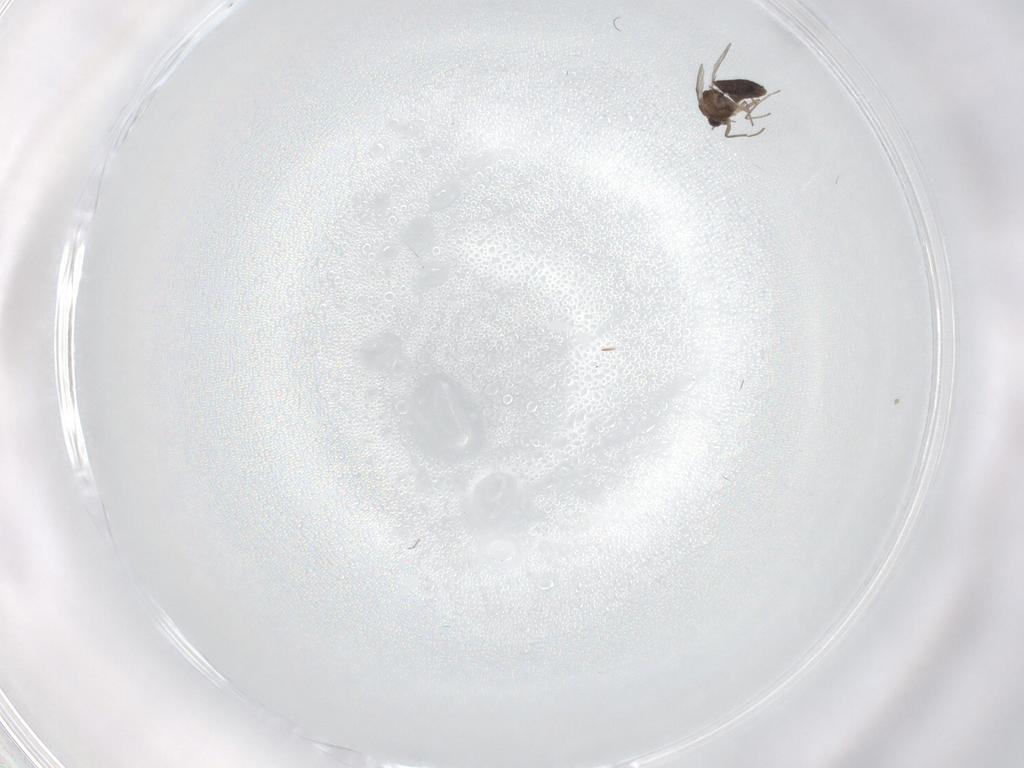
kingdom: Animalia
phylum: Arthropoda
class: Insecta
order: Diptera
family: Chironomidae
